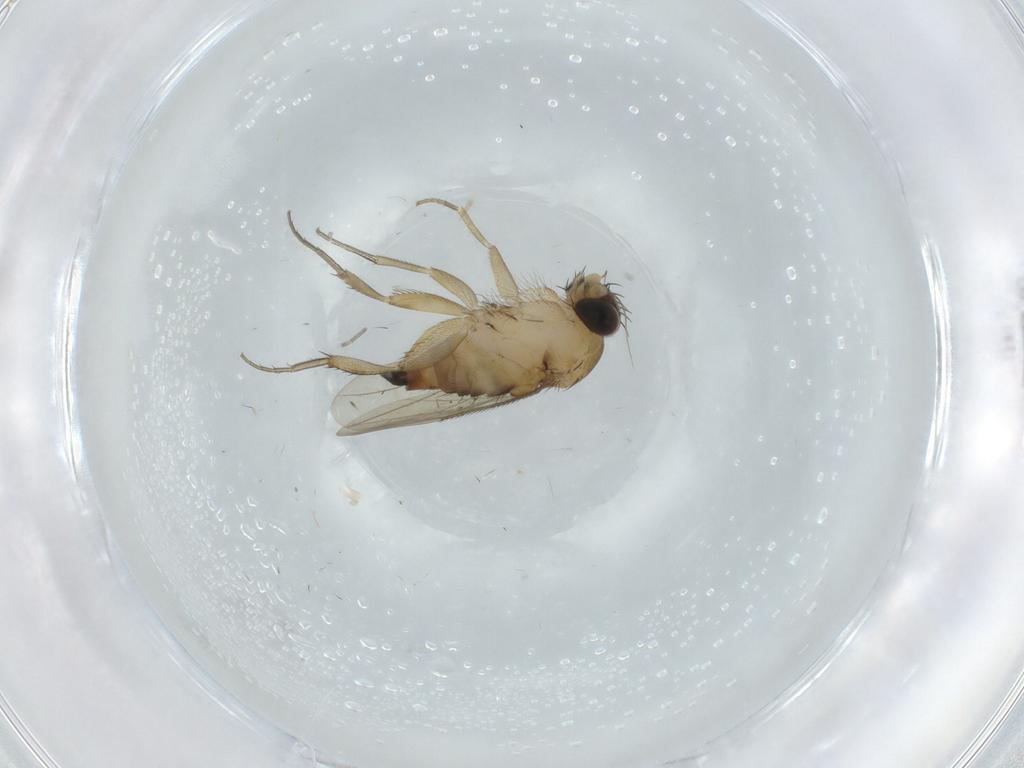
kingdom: Animalia
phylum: Arthropoda
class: Insecta
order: Diptera
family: Phoridae
